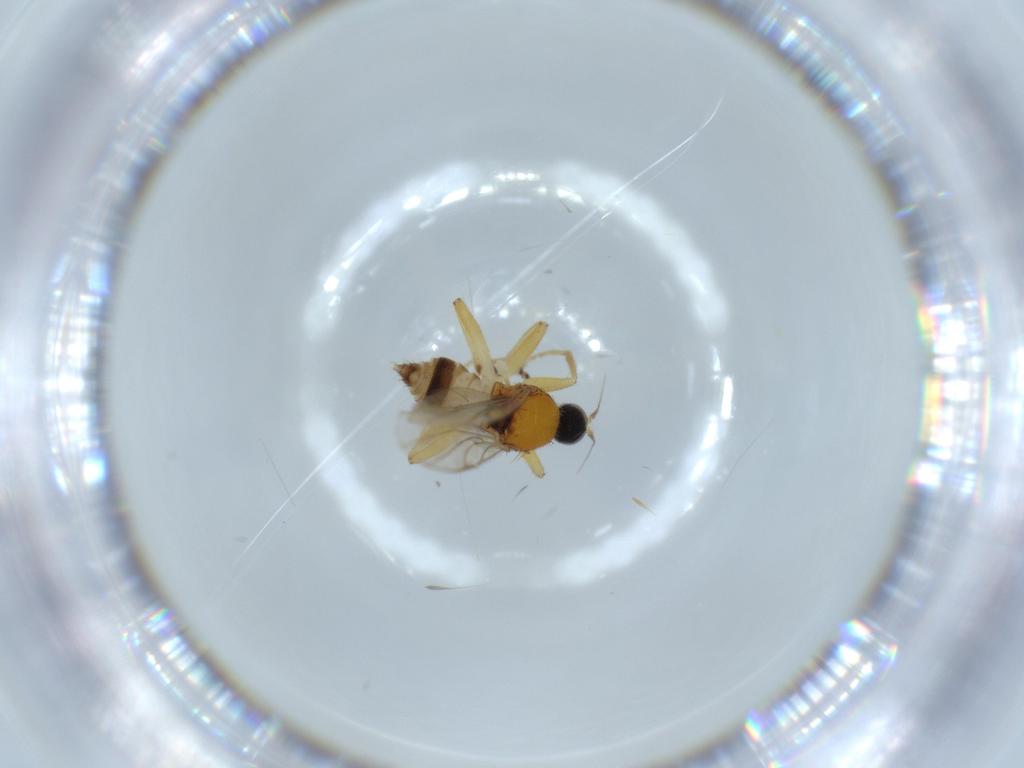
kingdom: Animalia
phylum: Arthropoda
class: Insecta
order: Diptera
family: Hybotidae
